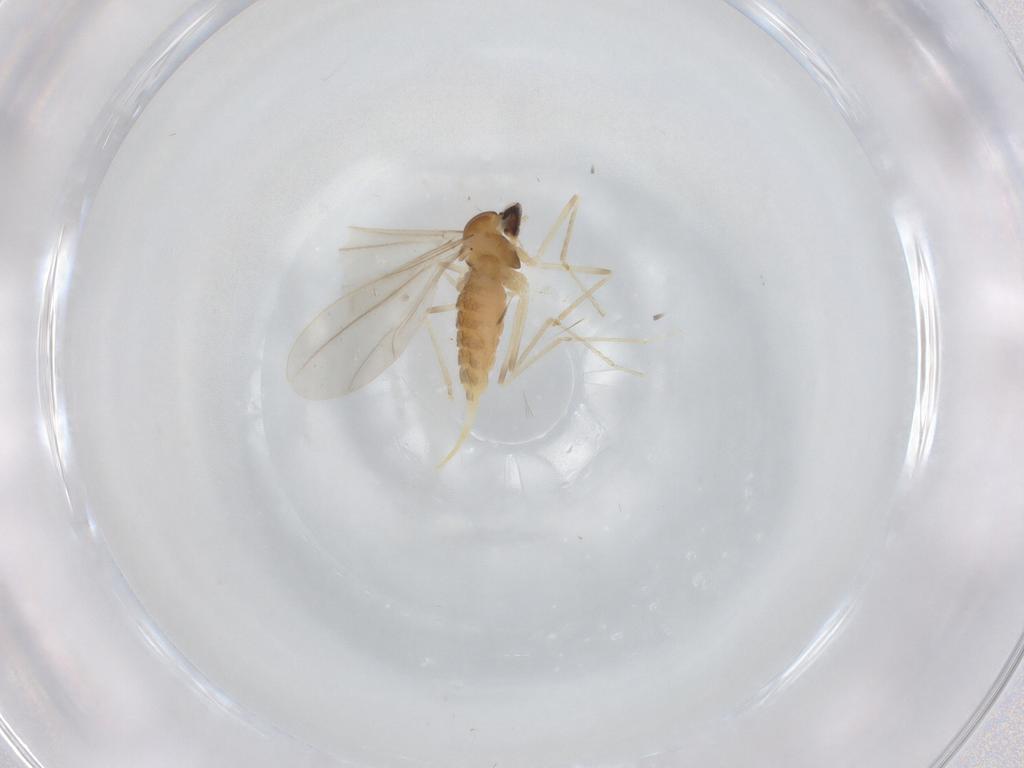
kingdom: Animalia
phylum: Arthropoda
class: Insecta
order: Diptera
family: Cecidomyiidae
